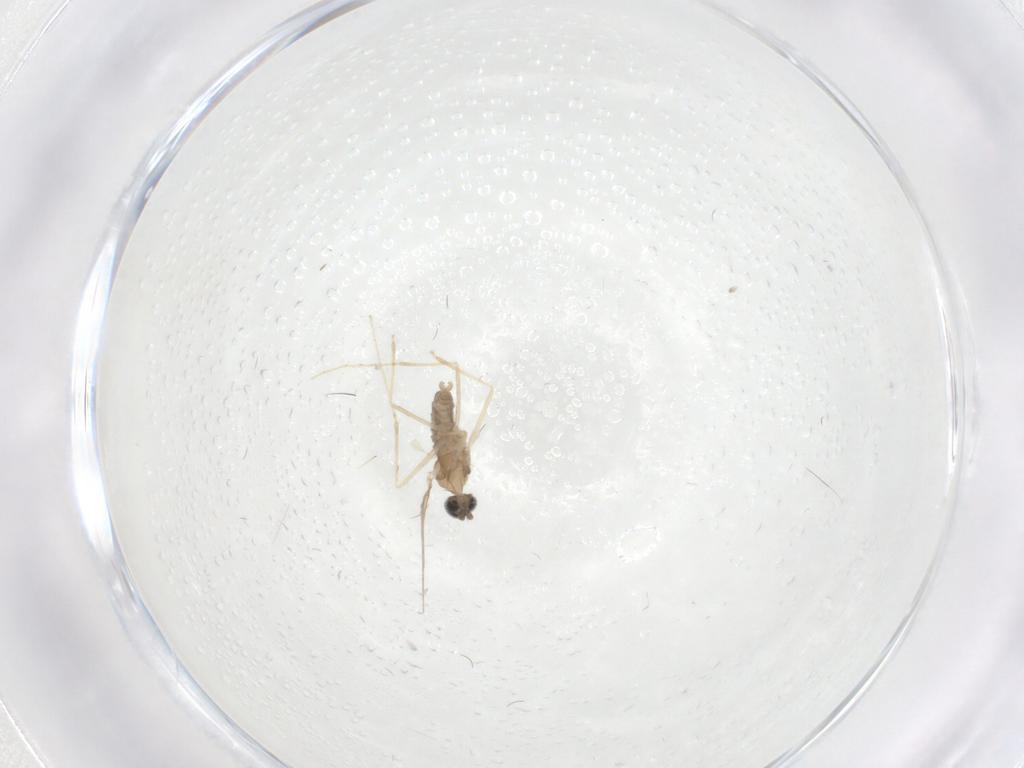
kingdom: Animalia
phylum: Arthropoda
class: Insecta
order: Diptera
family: Cecidomyiidae
